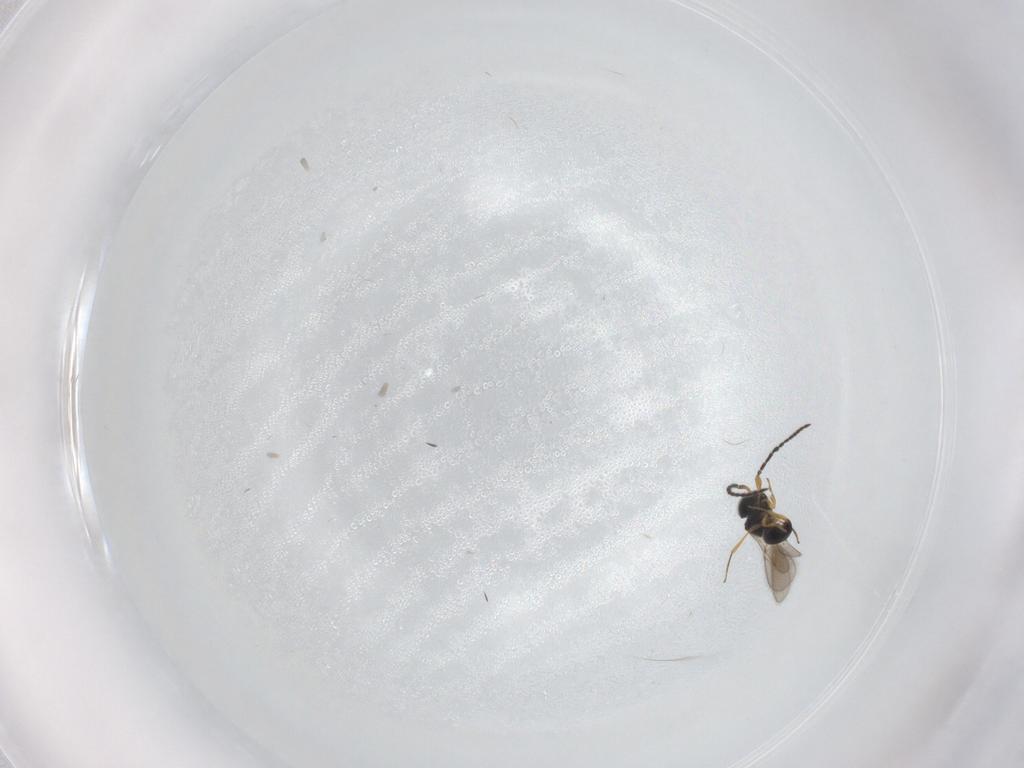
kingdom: Animalia
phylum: Arthropoda
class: Insecta
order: Hymenoptera
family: Scelionidae
